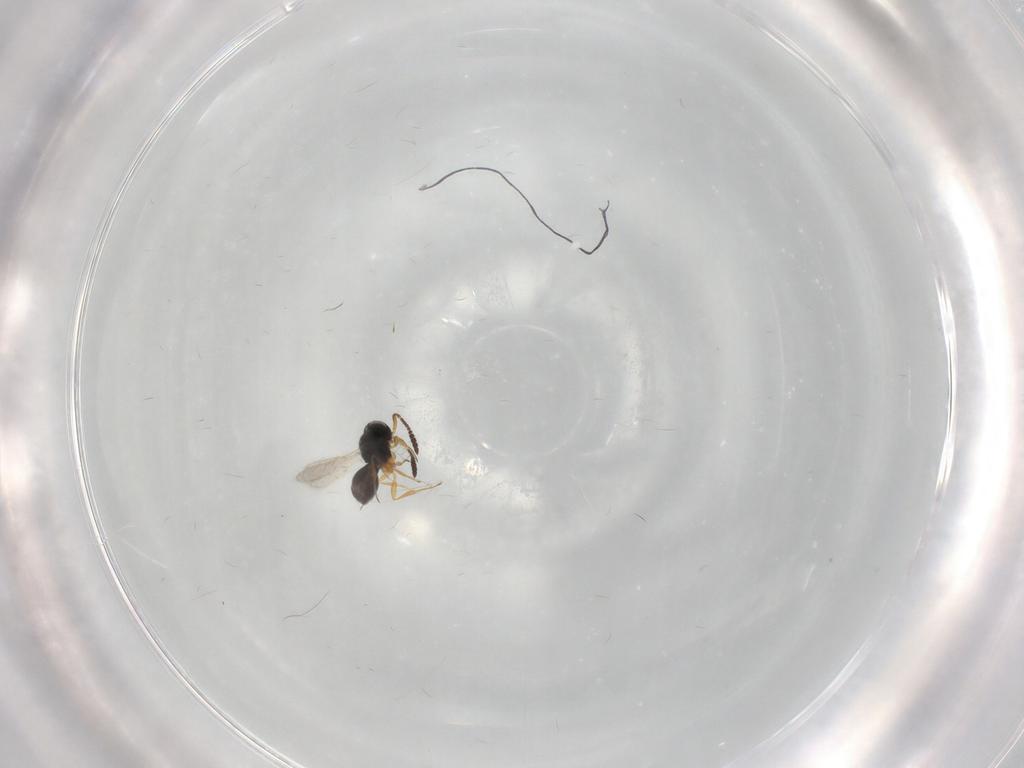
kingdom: Animalia
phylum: Arthropoda
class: Insecta
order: Hymenoptera
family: Scelionidae
